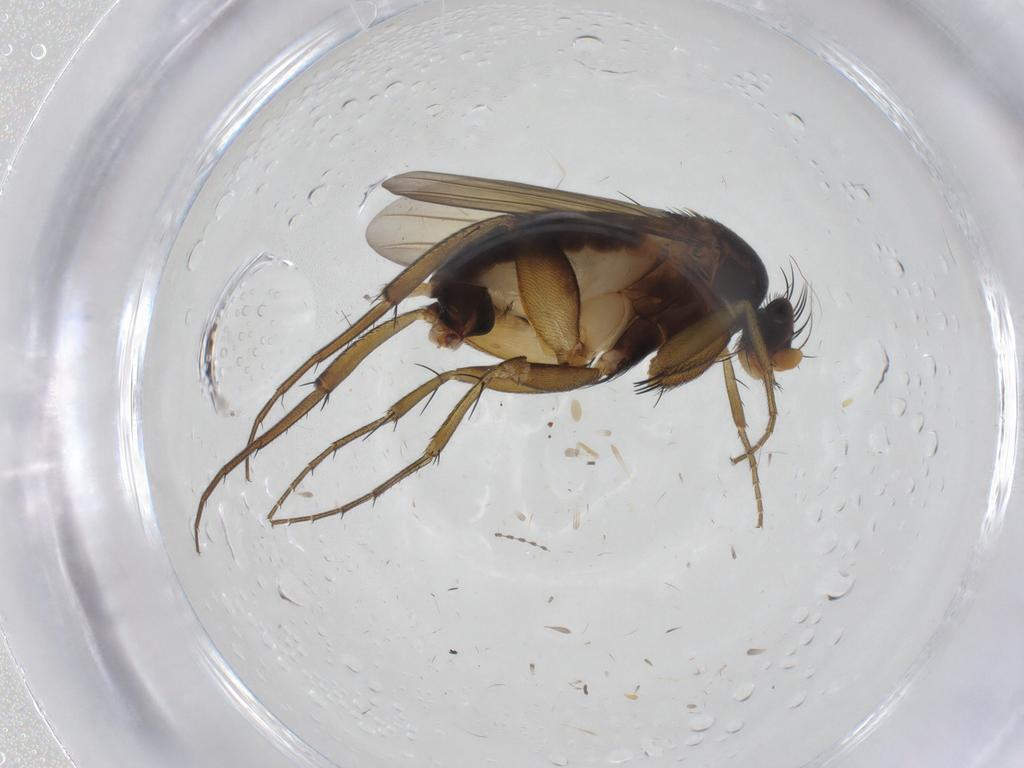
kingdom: Animalia
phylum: Arthropoda
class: Insecta
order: Diptera
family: Phoridae
